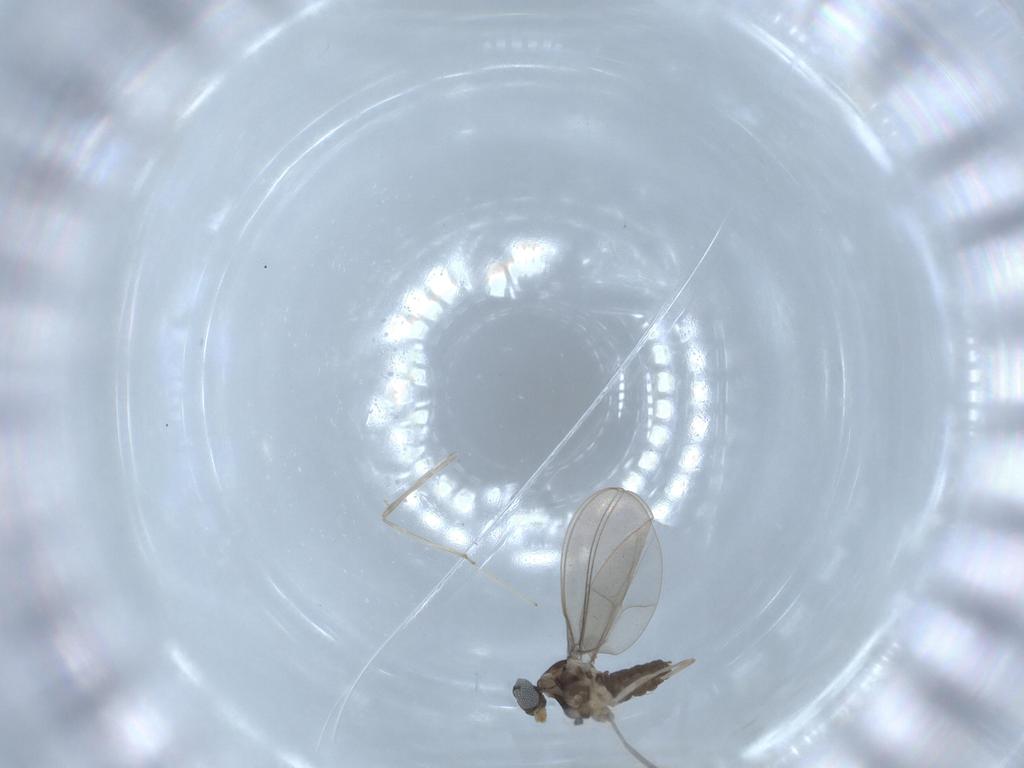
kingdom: Animalia
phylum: Arthropoda
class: Insecta
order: Diptera
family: Cecidomyiidae
